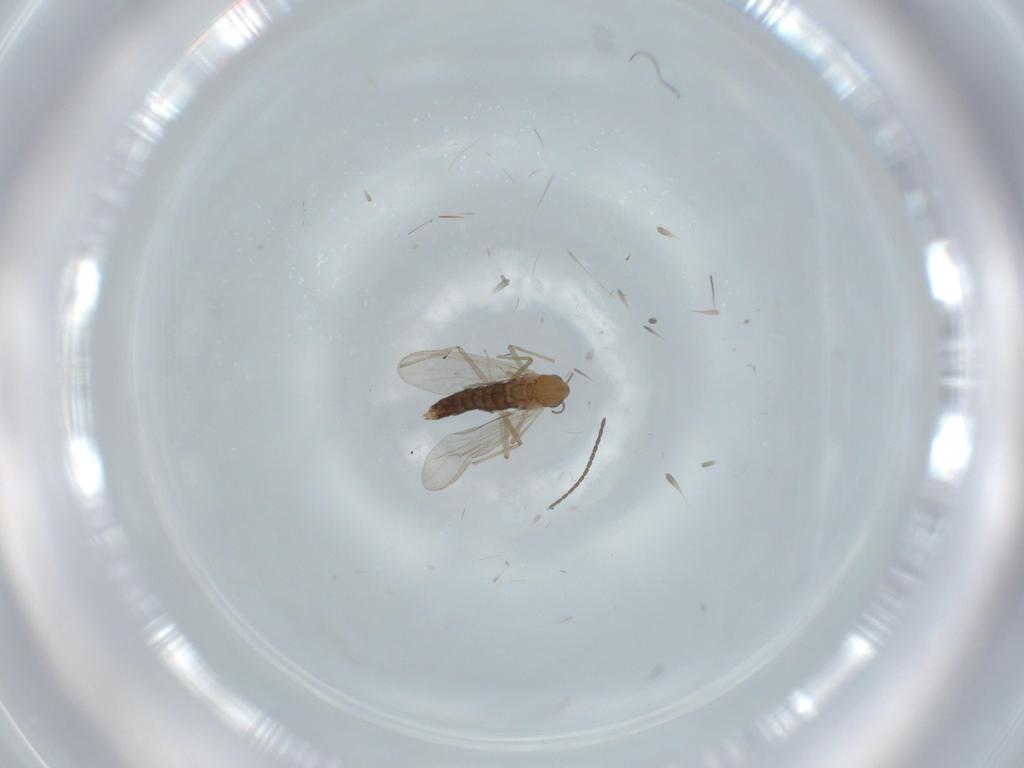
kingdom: Animalia
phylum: Arthropoda
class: Insecta
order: Diptera
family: Chironomidae
